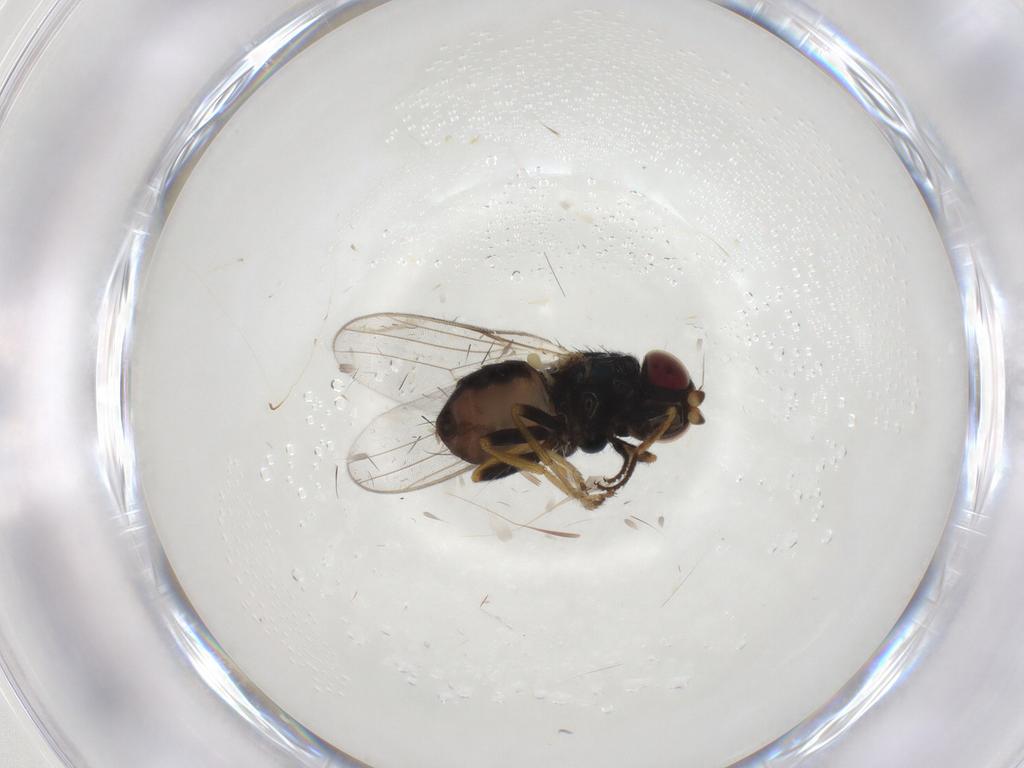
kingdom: Animalia
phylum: Arthropoda
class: Insecta
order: Diptera
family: Chloropidae
